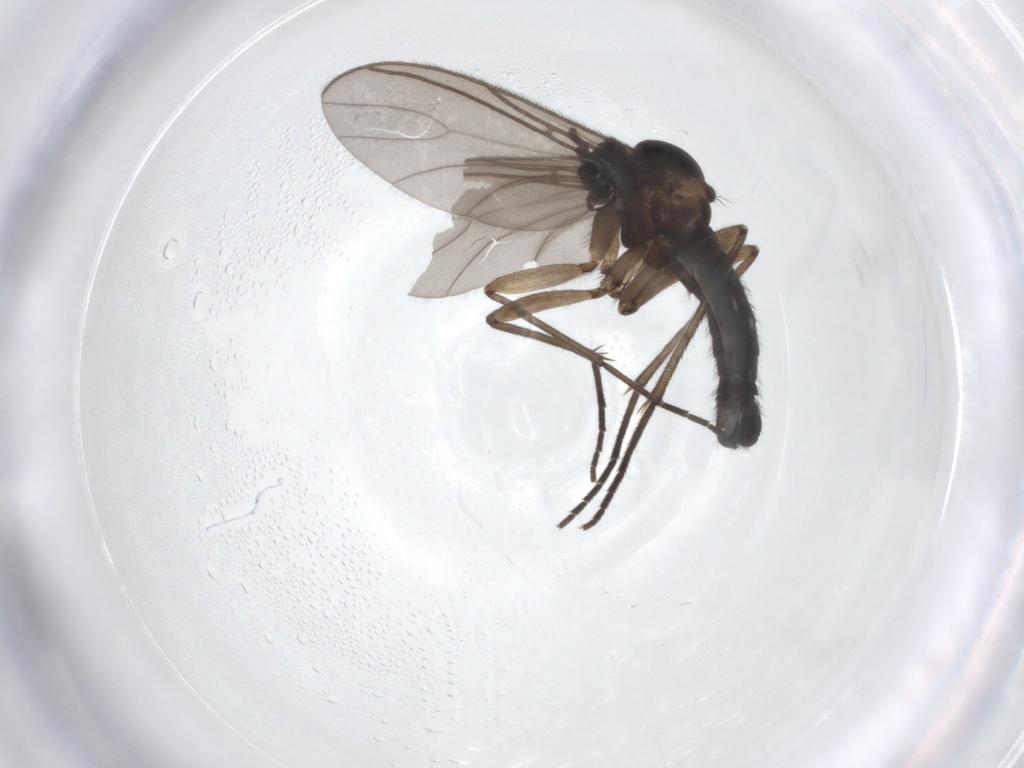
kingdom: Animalia
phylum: Arthropoda
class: Insecta
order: Diptera
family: Sciaridae
